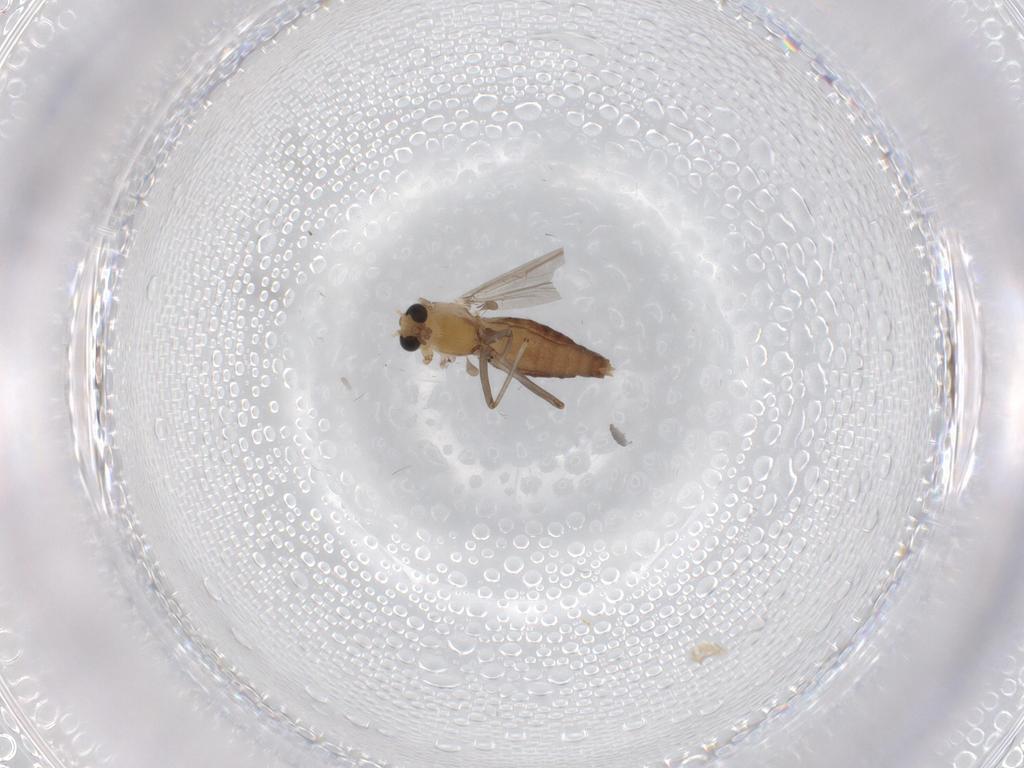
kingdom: Animalia
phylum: Arthropoda
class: Insecta
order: Diptera
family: Chironomidae
